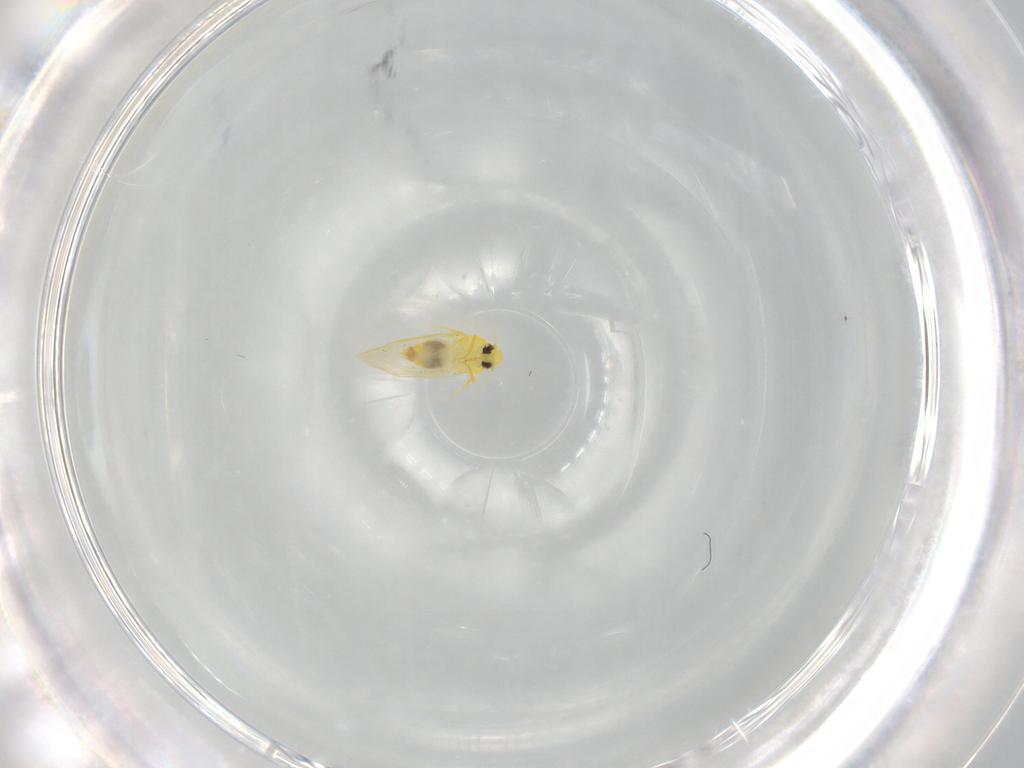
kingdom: Animalia
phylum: Arthropoda
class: Insecta
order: Hemiptera
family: Aleyrodidae
